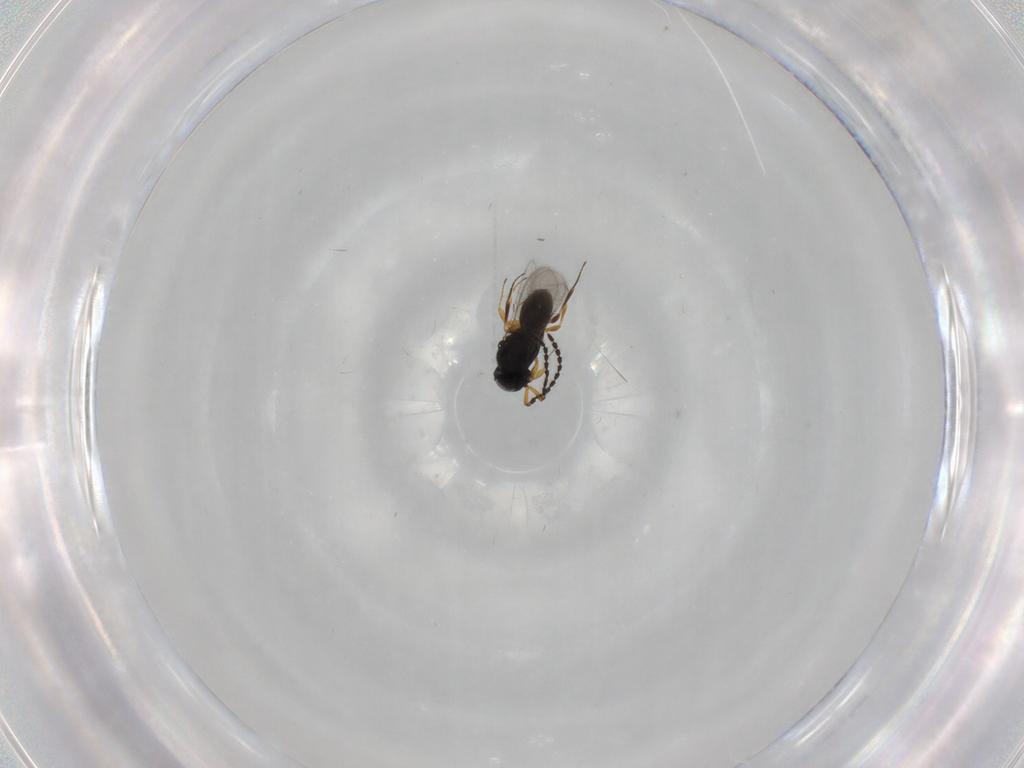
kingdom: Animalia
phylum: Arthropoda
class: Insecta
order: Hymenoptera
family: Scelionidae
